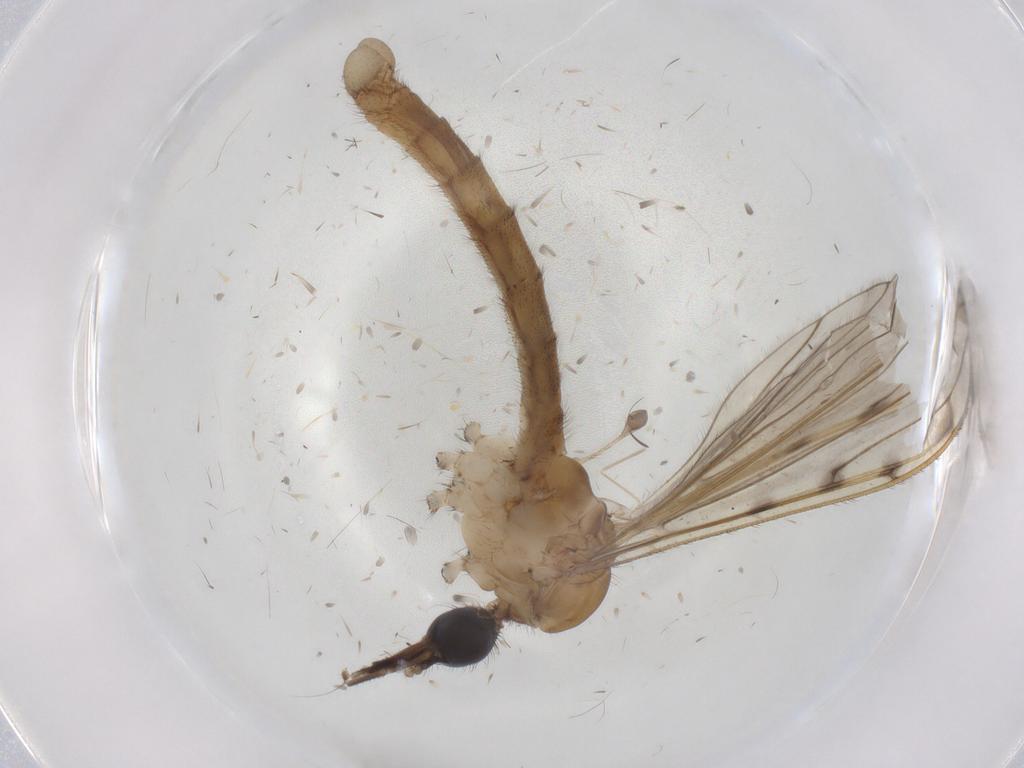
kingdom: Animalia
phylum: Arthropoda
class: Insecta
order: Diptera
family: Ceratopogonidae
